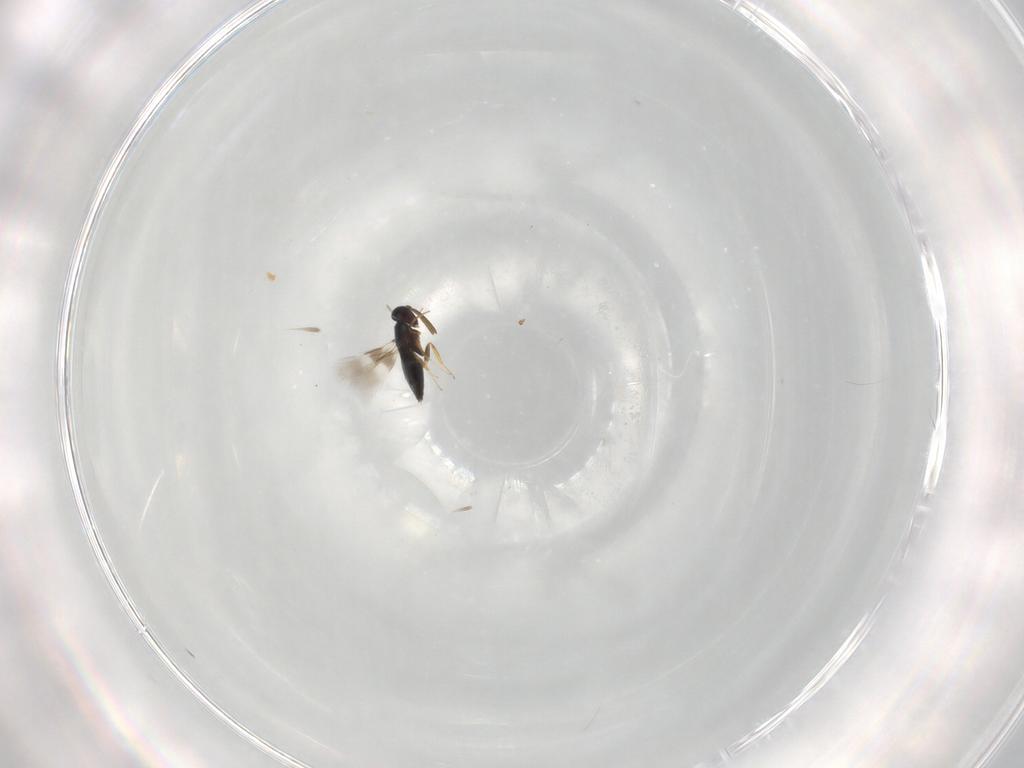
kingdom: Animalia
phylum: Arthropoda
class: Insecta
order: Hymenoptera
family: Signiphoridae
